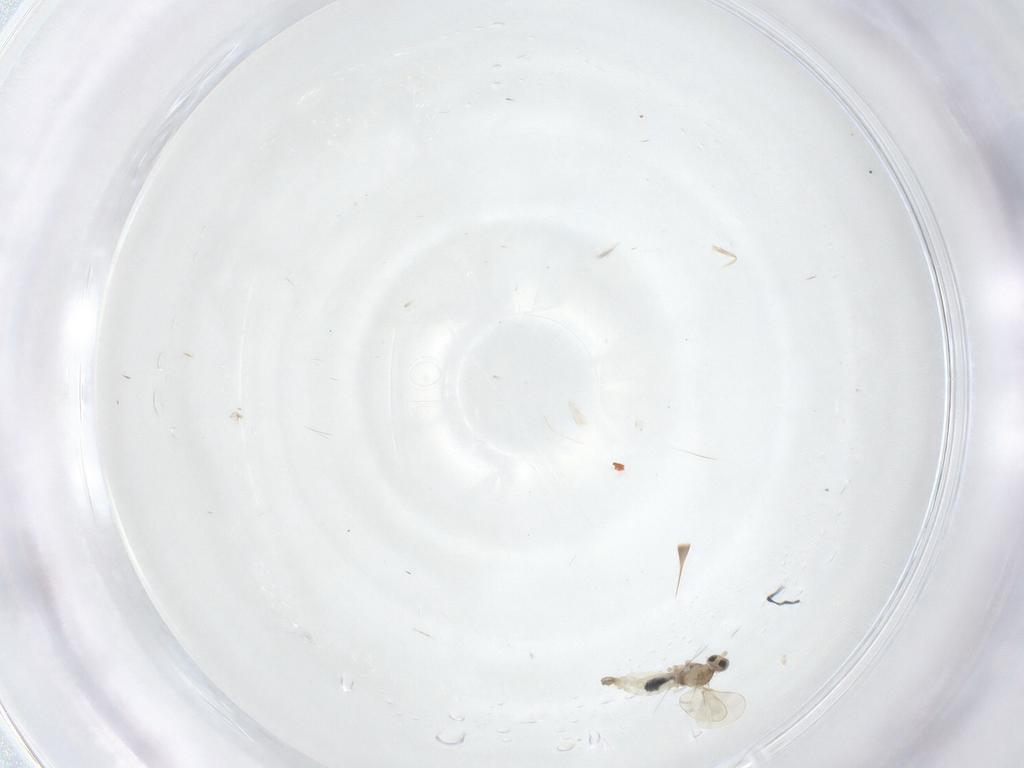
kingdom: Animalia
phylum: Arthropoda
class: Insecta
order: Diptera
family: Cecidomyiidae
